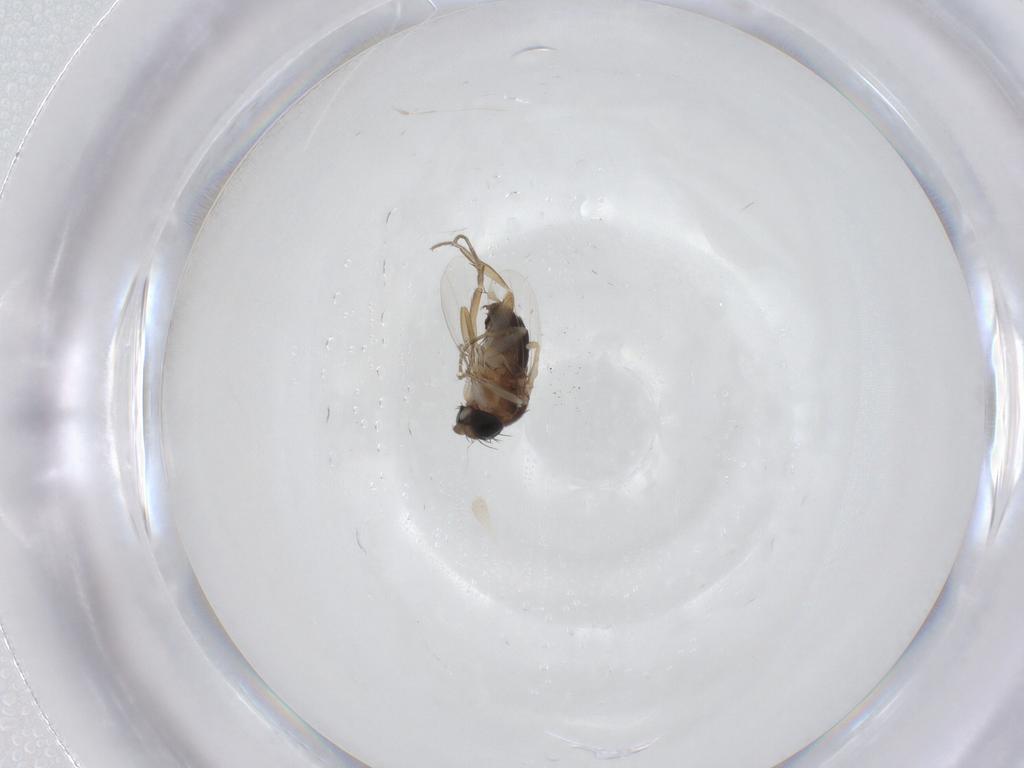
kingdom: Animalia
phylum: Arthropoda
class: Insecta
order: Diptera
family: Phoridae
